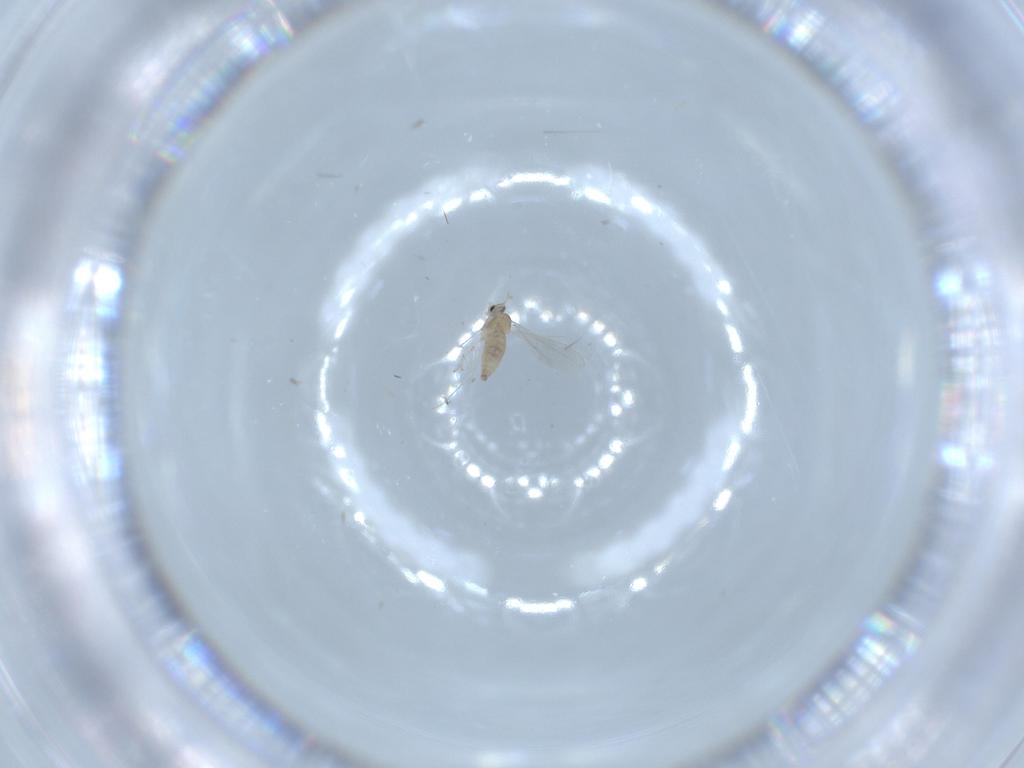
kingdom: Animalia
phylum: Arthropoda
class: Insecta
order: Diptera
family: Cecidomyiidae
